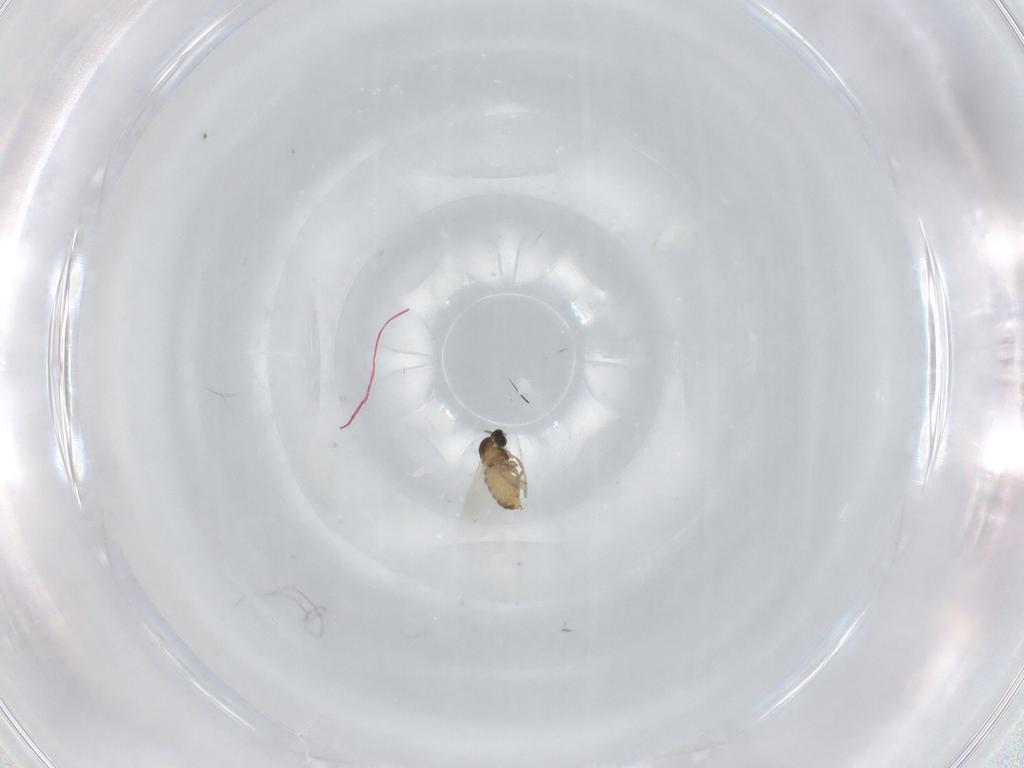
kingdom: Animalia
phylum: Arthropoda
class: Insecta
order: Diptera
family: Cecidomyiidae
